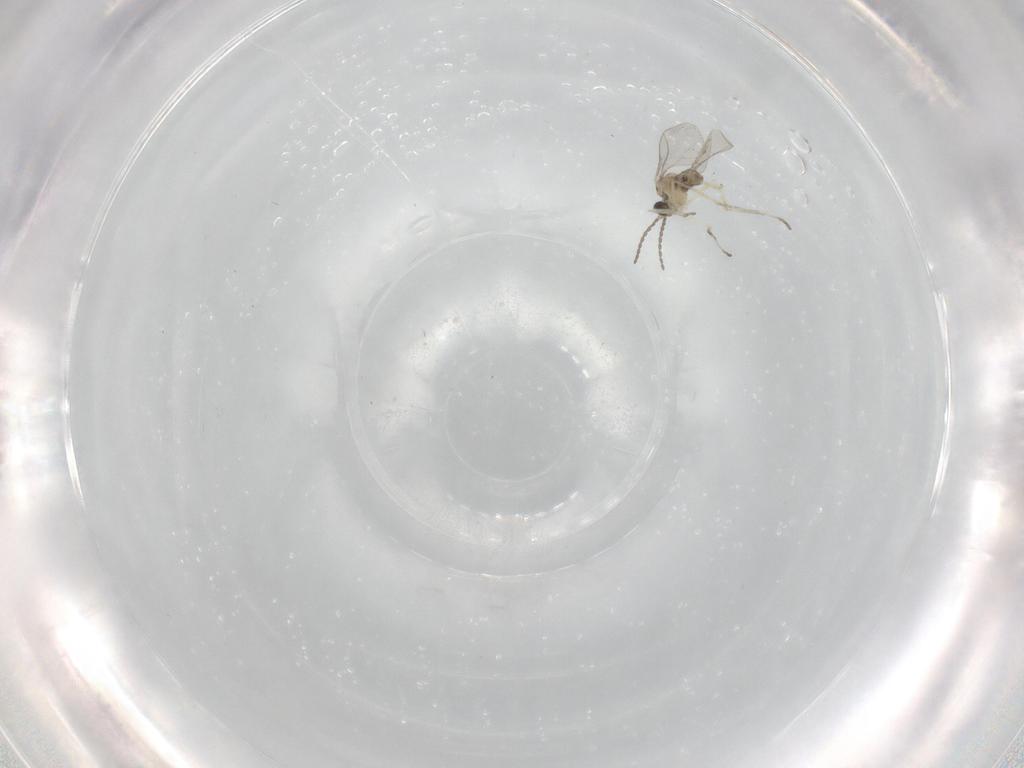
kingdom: Animalia
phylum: Arthropoda
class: Insecta
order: Diptera
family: Cecidomyiidae
